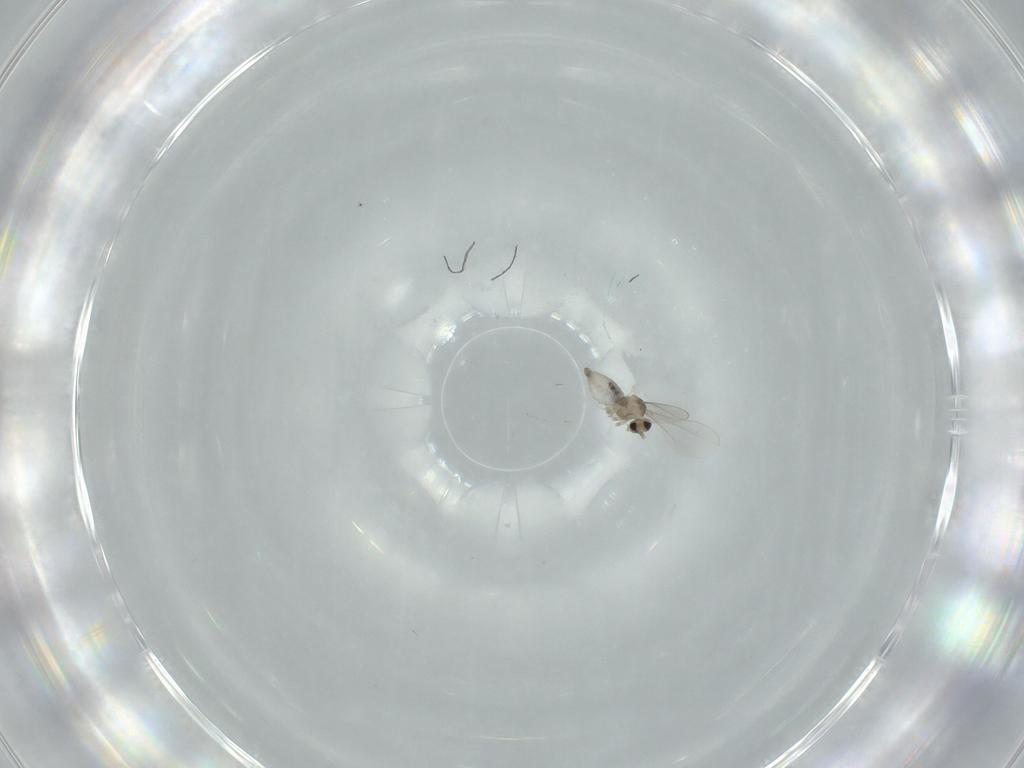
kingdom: Animalia
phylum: Arthropoda
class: Insecta
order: Diptera
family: Cecidomyiidae
